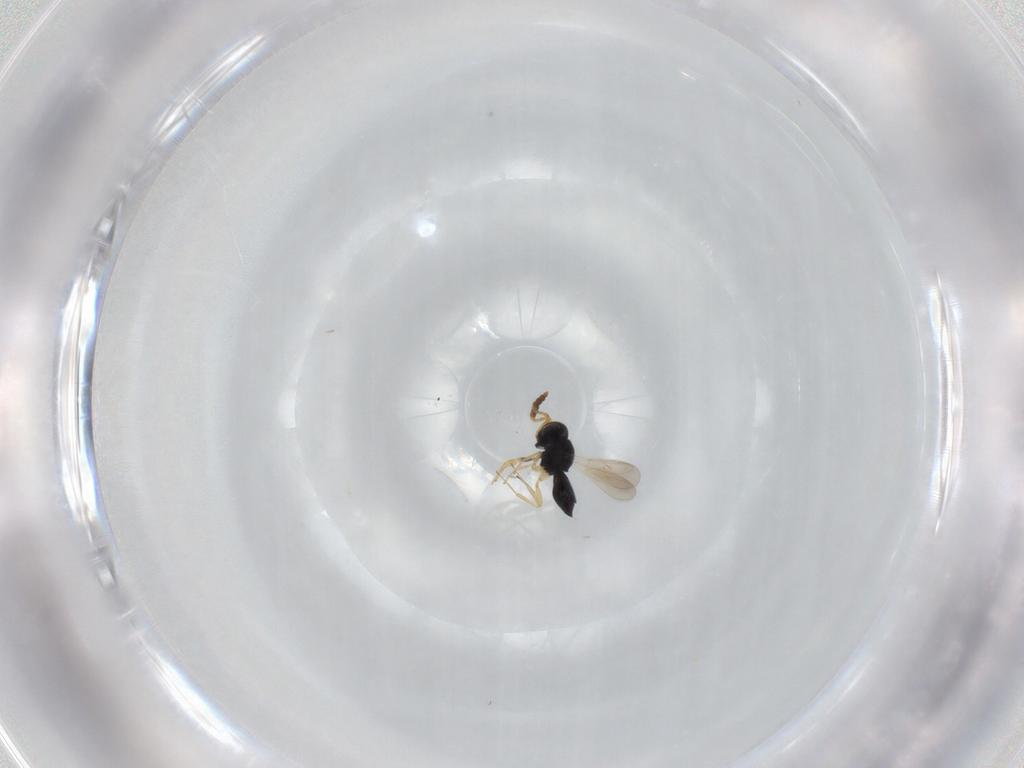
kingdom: Animalia
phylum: Arthropoda
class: Insecta
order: Hymenoptera
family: Scelionidae
